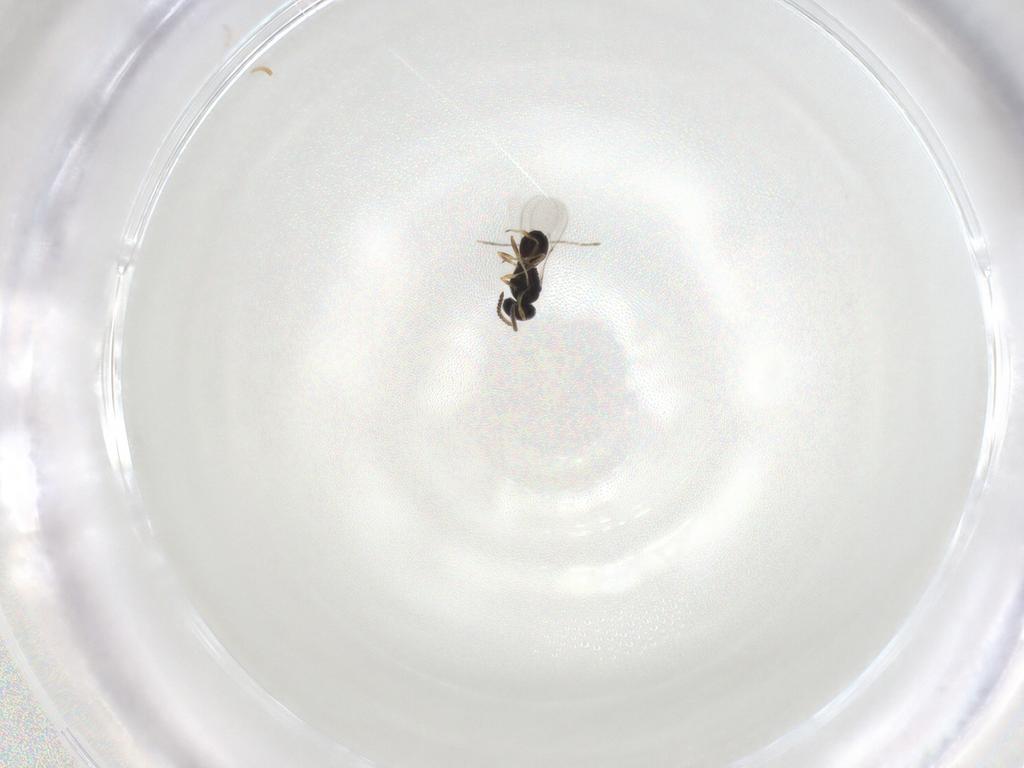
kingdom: Animalia
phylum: Arthropoda
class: Insecta
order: Hymenoptera
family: Scelionidae
